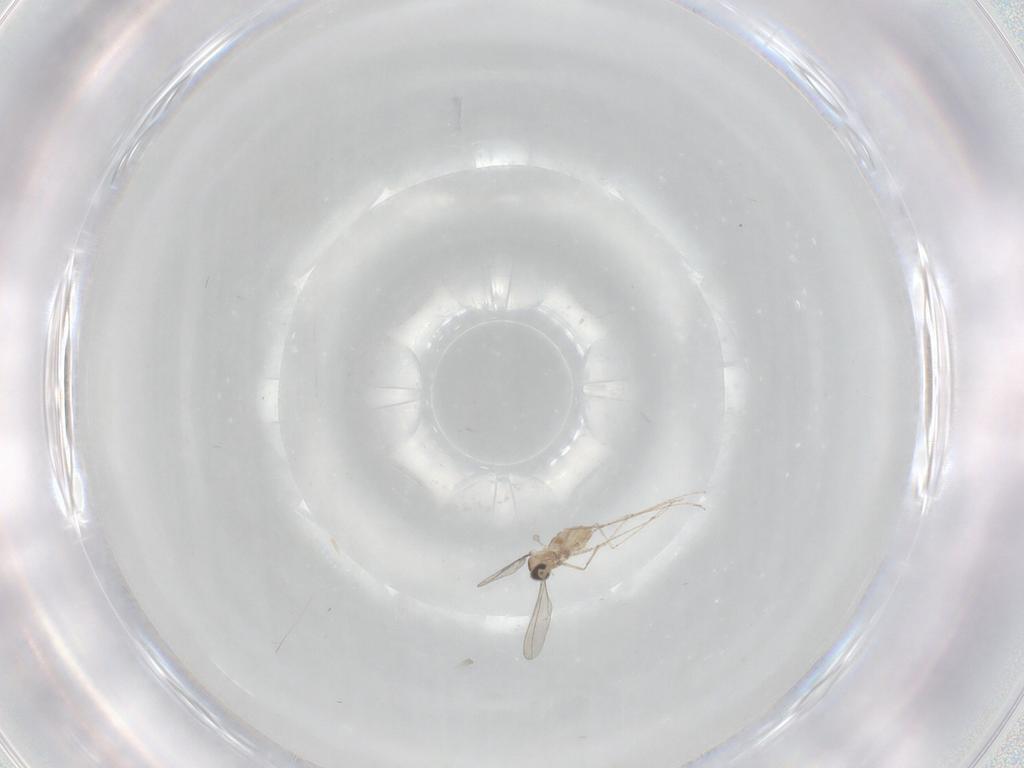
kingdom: Animalia
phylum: Arthropoda
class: Insecta
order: Diptera
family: Cecidomyiidae
